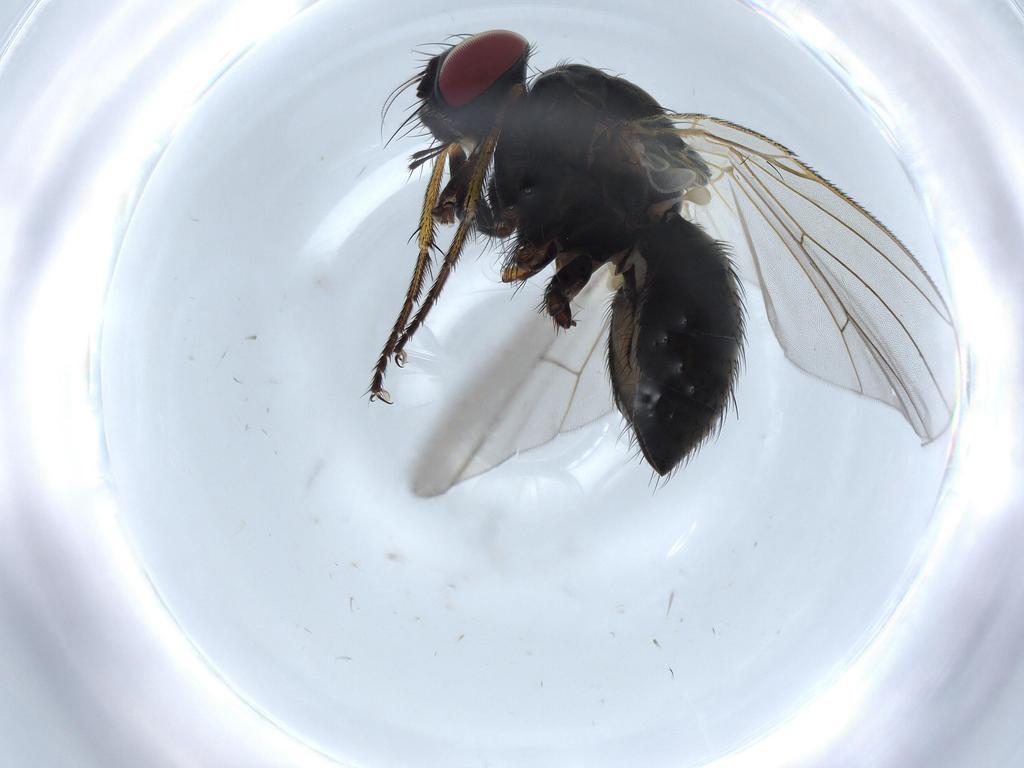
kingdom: Animalia
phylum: Arthropoda
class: Insecta
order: Diptera
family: Muscidae
